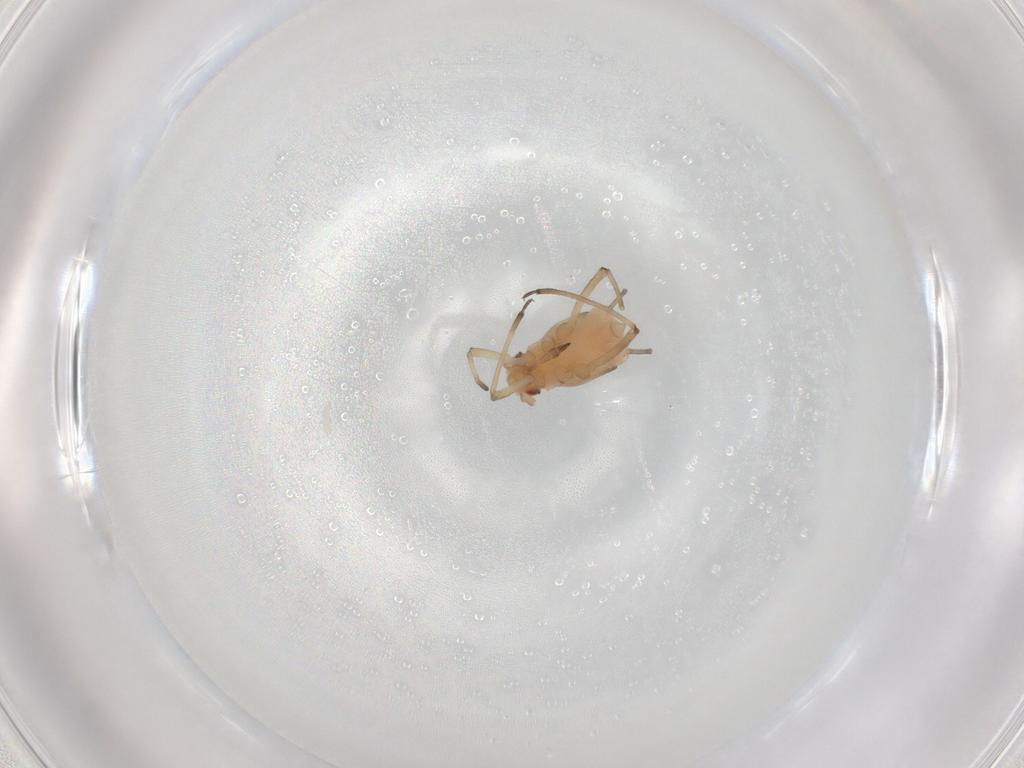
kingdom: Animalia
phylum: Arthropoda
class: Insecta
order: Hemiptera
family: Aphididae
